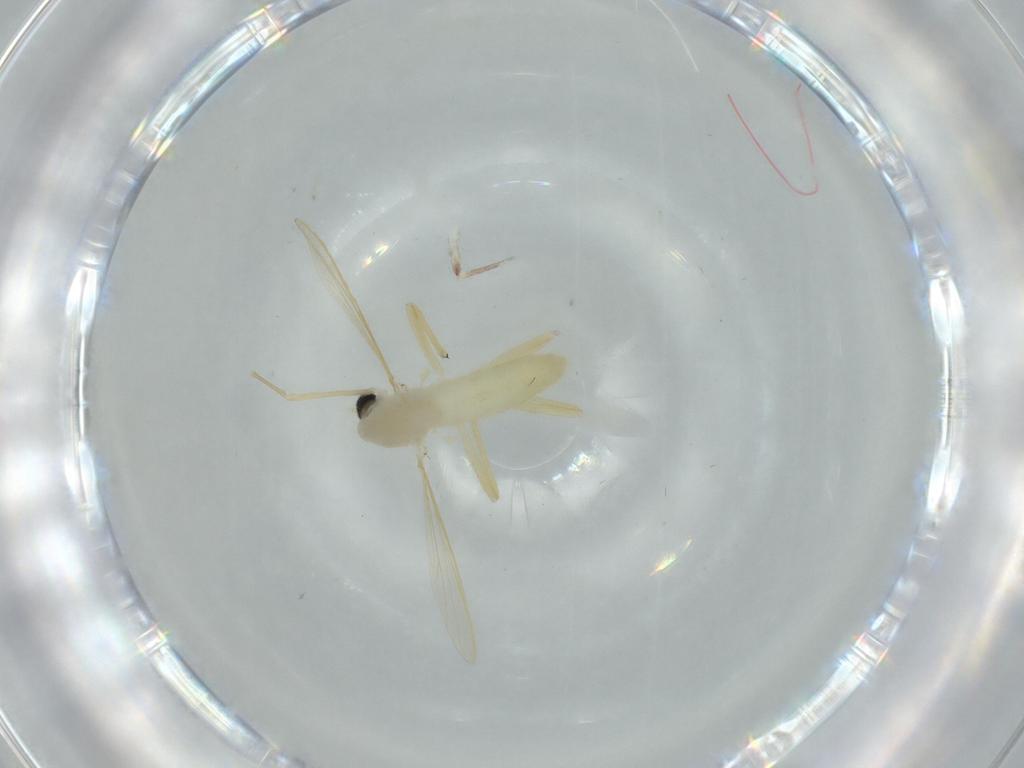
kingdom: Animalia
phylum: Arthropoda
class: Insecta
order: Diptera
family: Chironomidae
